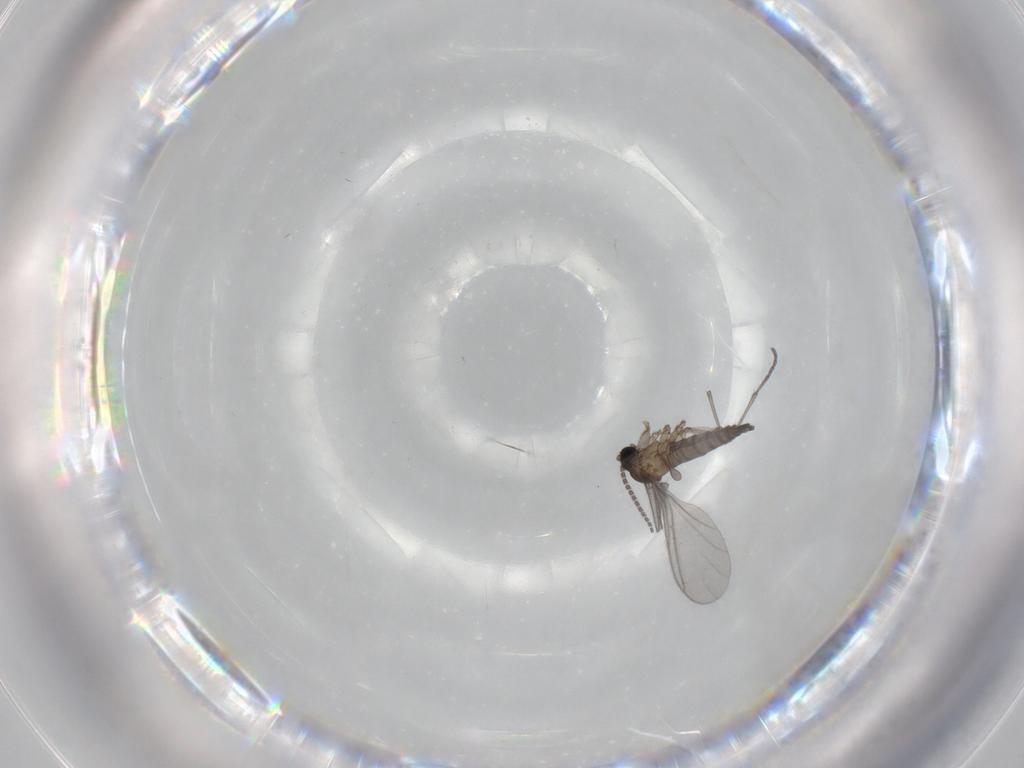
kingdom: Animalia
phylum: Arthropoda
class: Insecta
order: Diptera
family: Sciaridae
